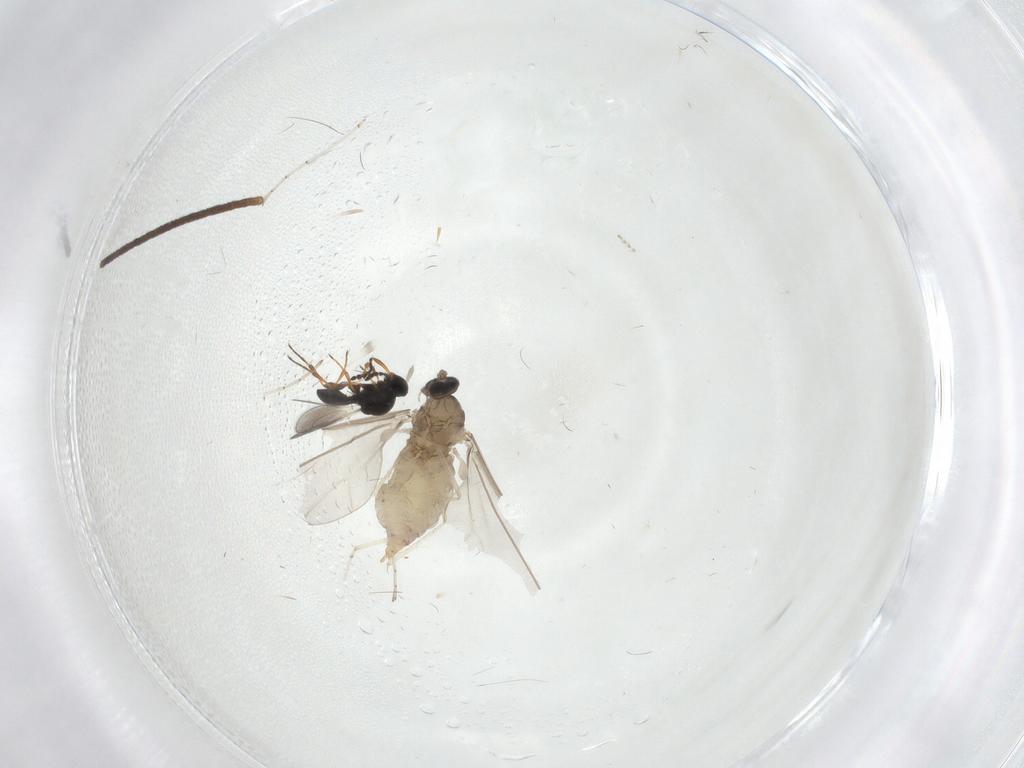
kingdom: Animalia
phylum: Arthropoda
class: Insecta
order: Diptera
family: Cecidomyiidae
